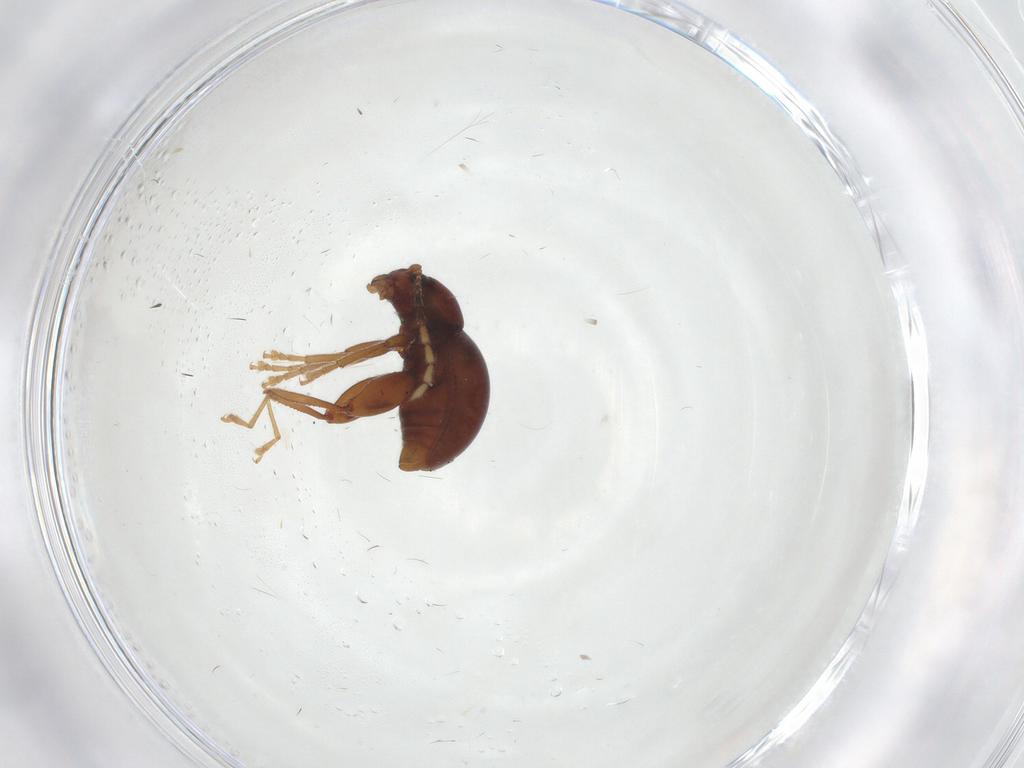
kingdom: Animalia
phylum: Arthropoda
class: Insecta
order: Coleoptera
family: Chrysomelidae
